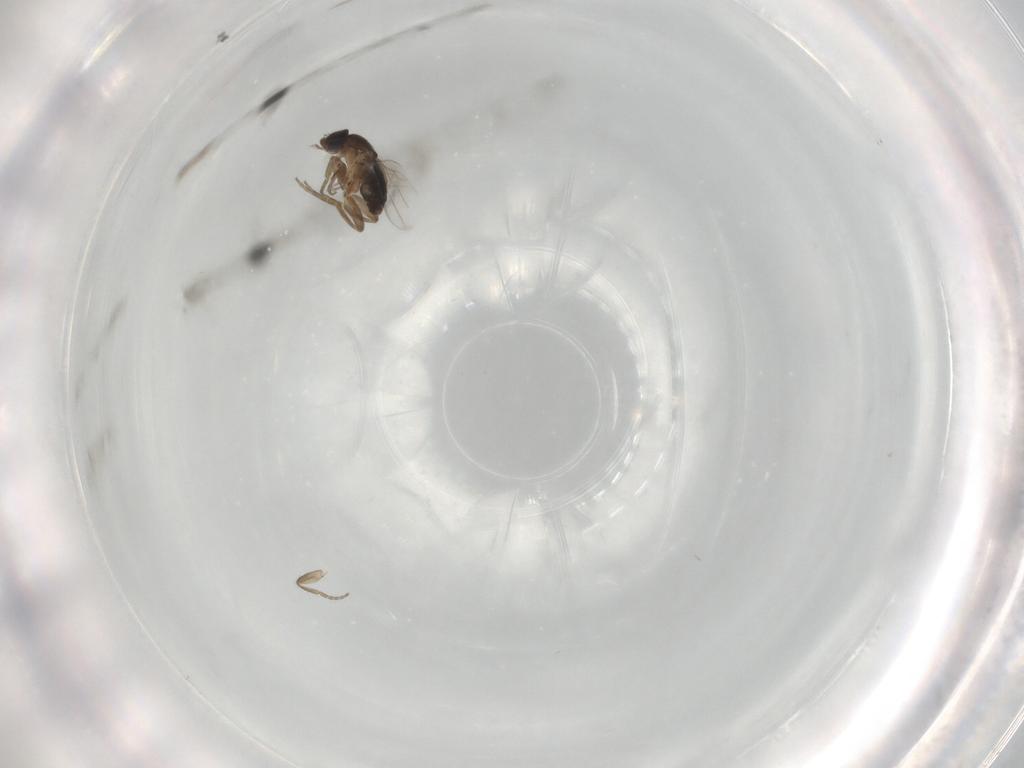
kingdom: Animalia
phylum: Arthropoda
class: Insecta
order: Diptera
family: Phoridae
